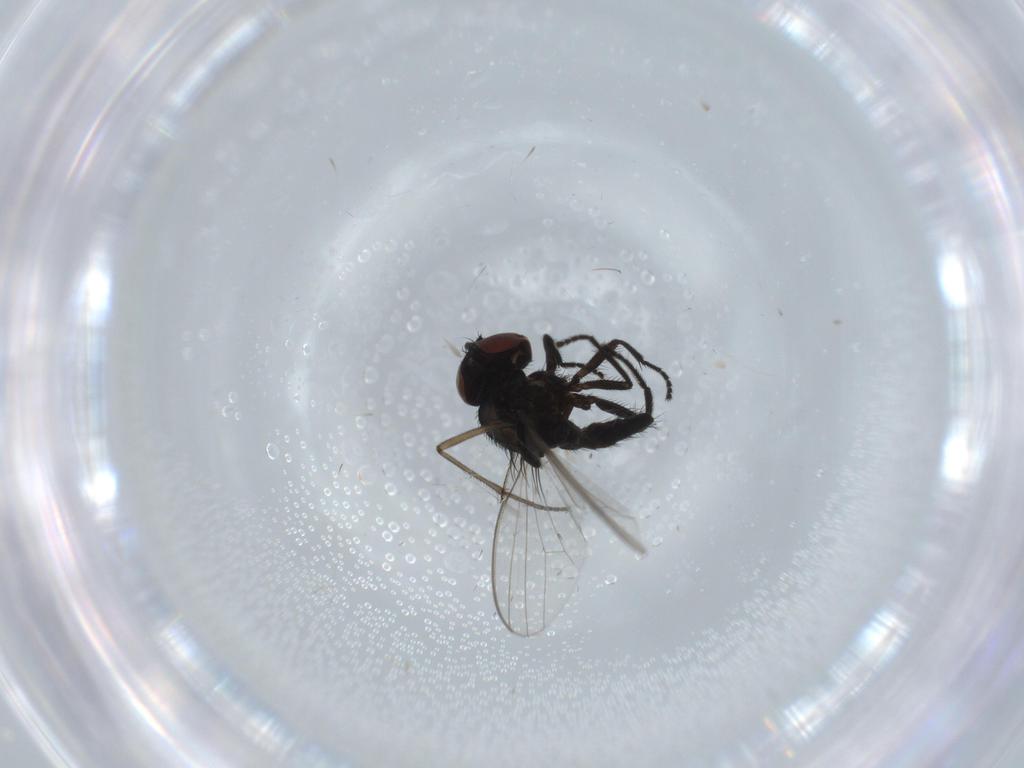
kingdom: Animalia
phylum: Arthropoda
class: Insecta
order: Diptera
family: Milichiidae
